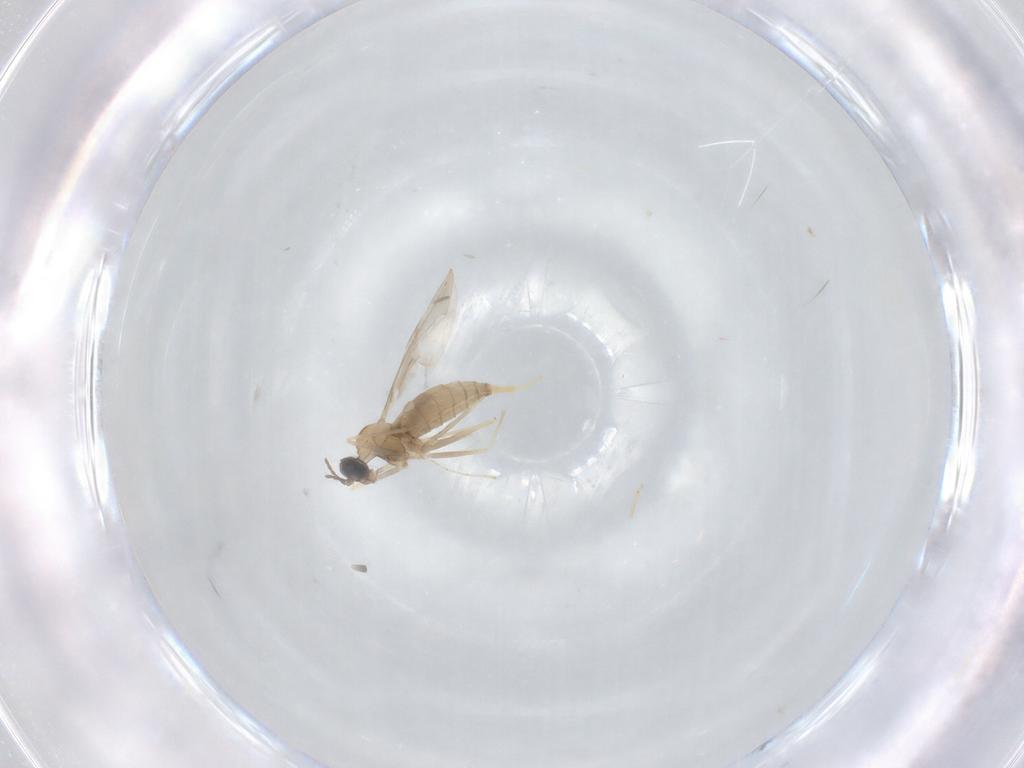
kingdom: Animalia
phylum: Arthropoda
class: Insecta
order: Diptera
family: Cecidomyiidae
